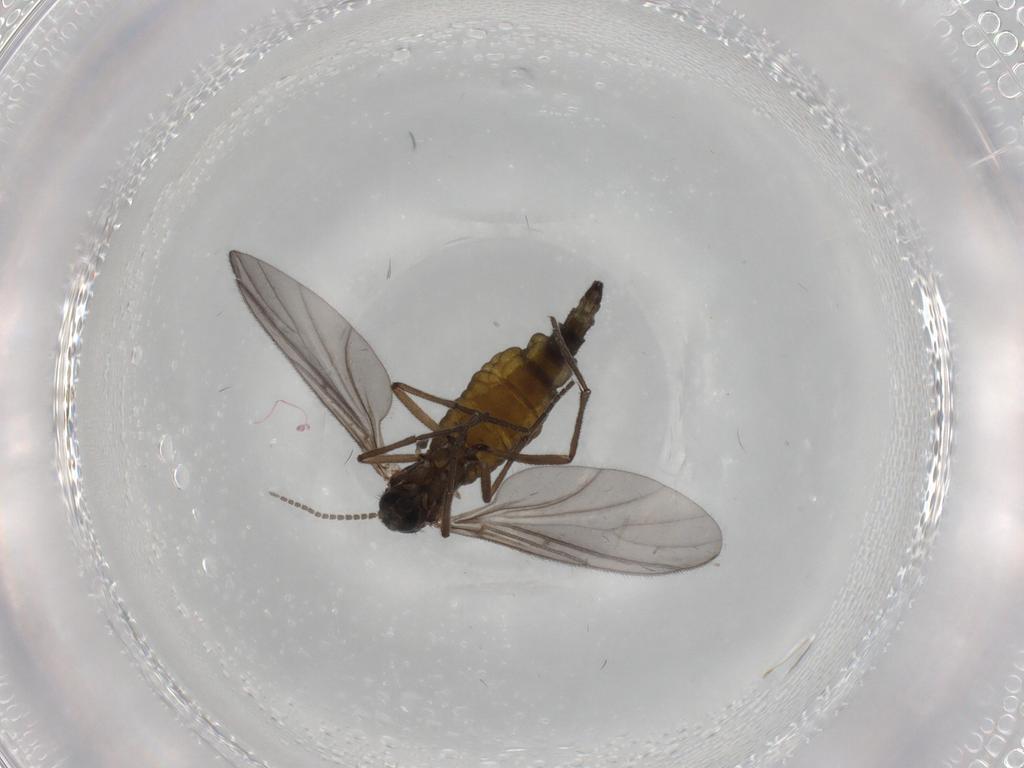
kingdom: Animalia
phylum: Arthropoda
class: Insecta
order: Diptera
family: Sciaridae
